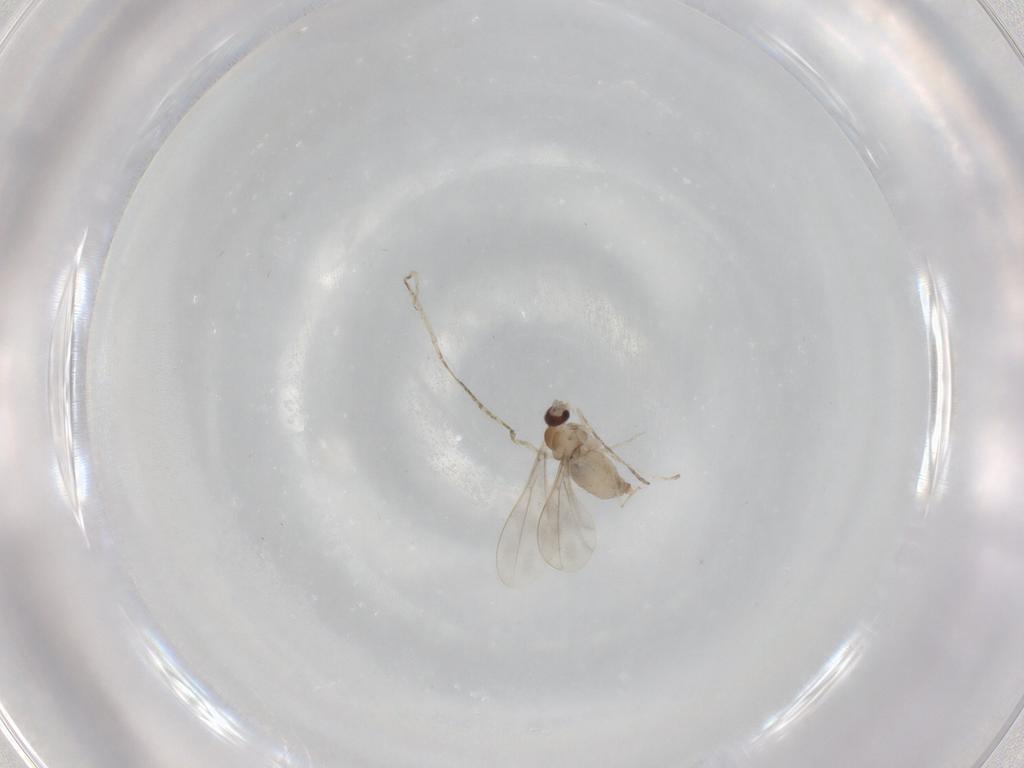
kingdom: Animalia
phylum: Arthropoda
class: Insecta
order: Diptera
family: Cecidomyiidae
